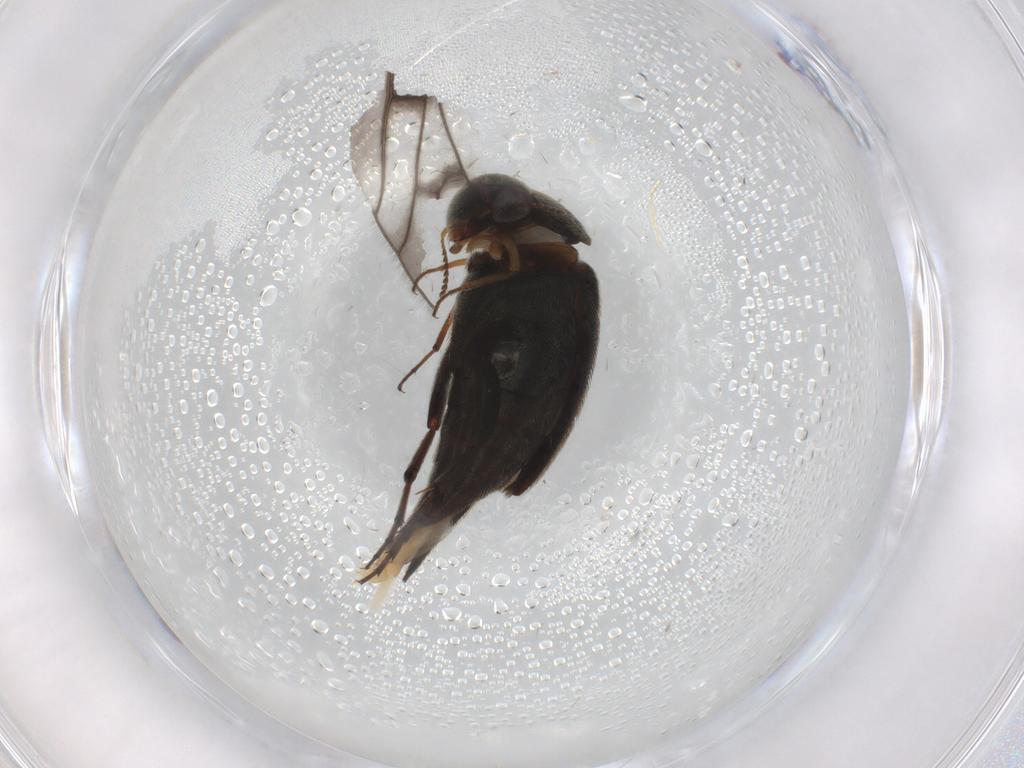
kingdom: Animalia
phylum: Arthropoda
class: Insecta
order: Coleoptera
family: Mordellidae
